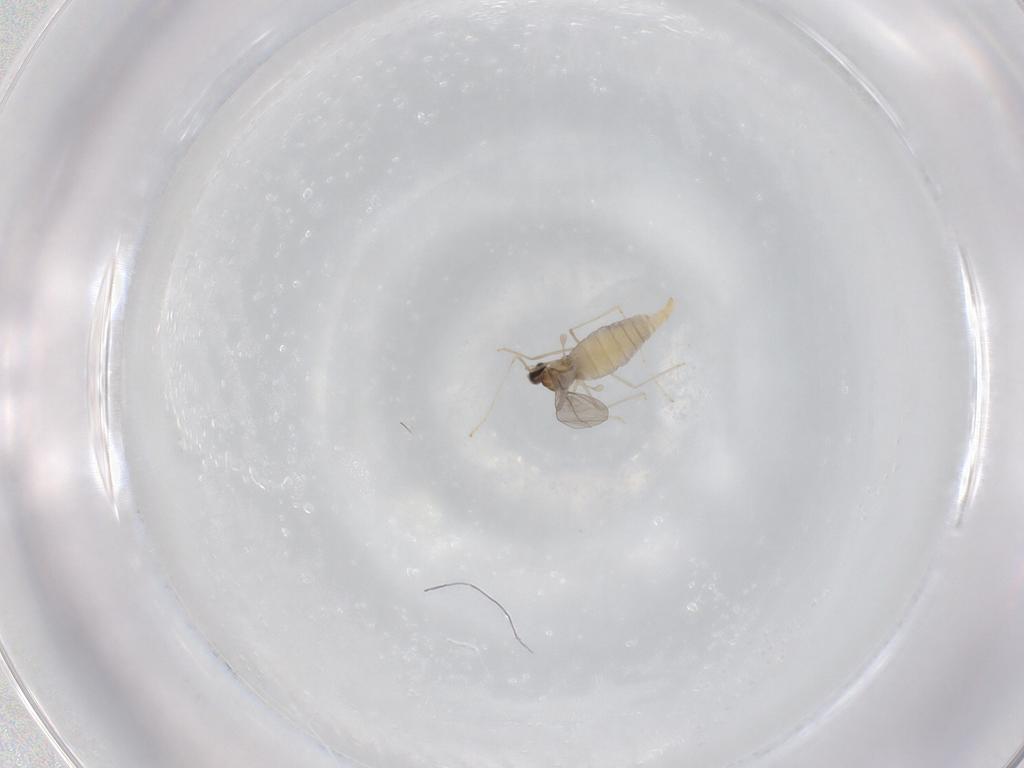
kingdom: Animalia
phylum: Arthropoda
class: Insecta
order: Diptera
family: Cecidomyiidae
